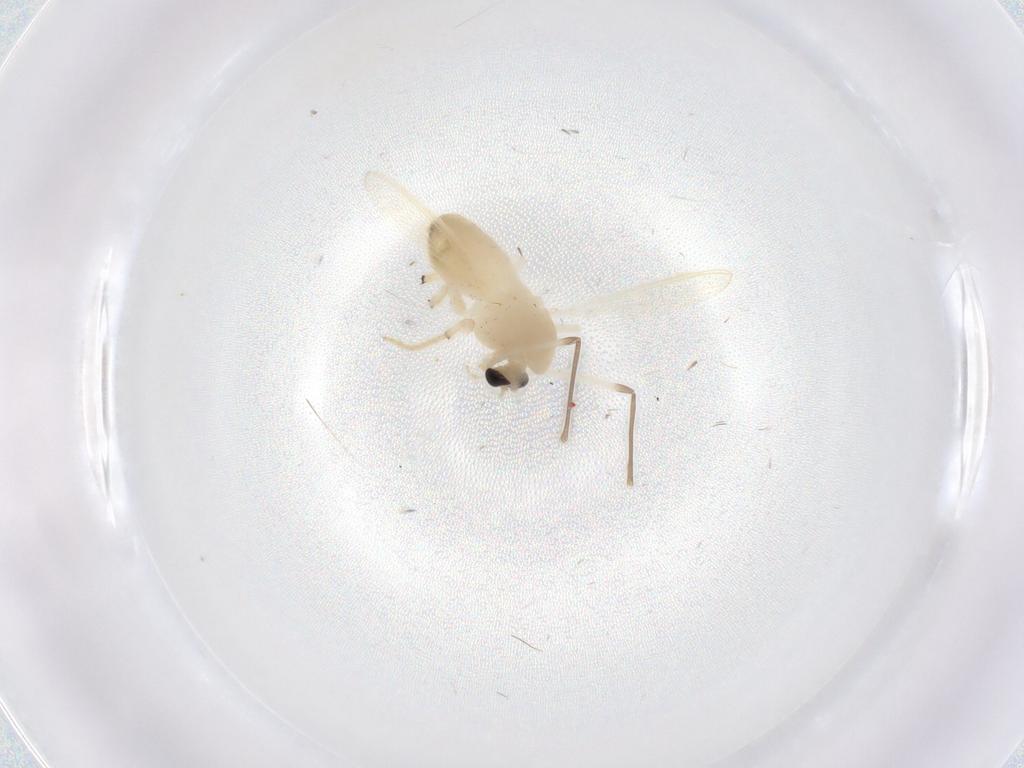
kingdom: Animalia
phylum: Arthropoda
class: Insecta
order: Diptera
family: Chironomidae
